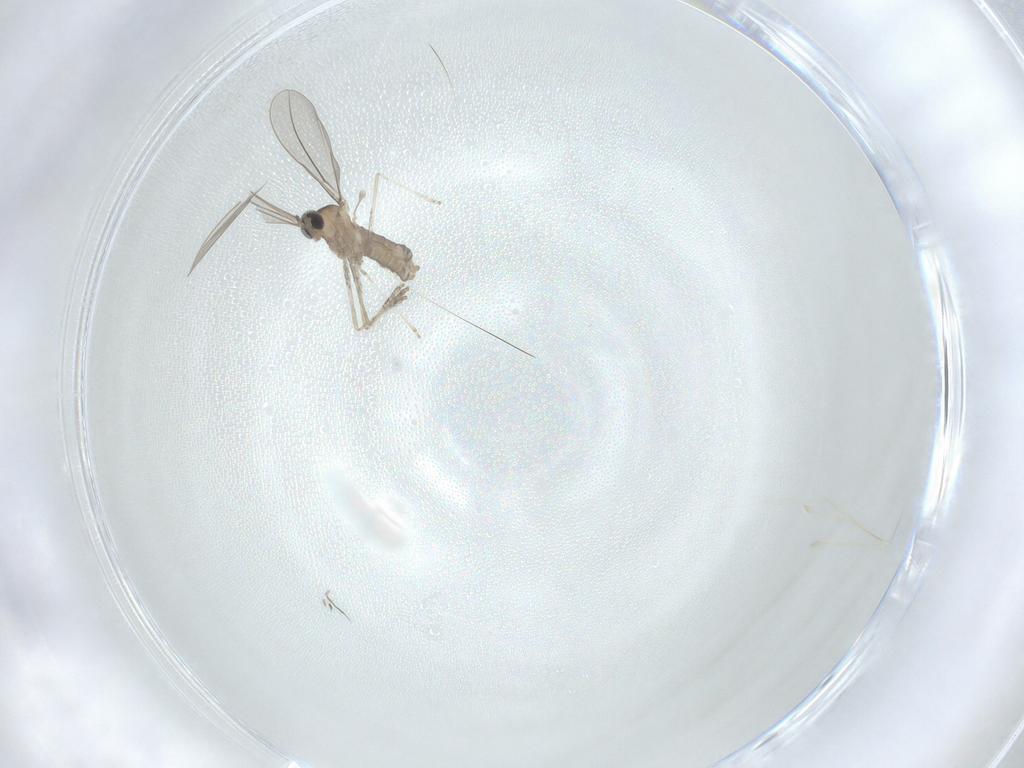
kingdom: Animalia
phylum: Arthropoda
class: Insecta
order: Diptera
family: Cecidomyiidae
